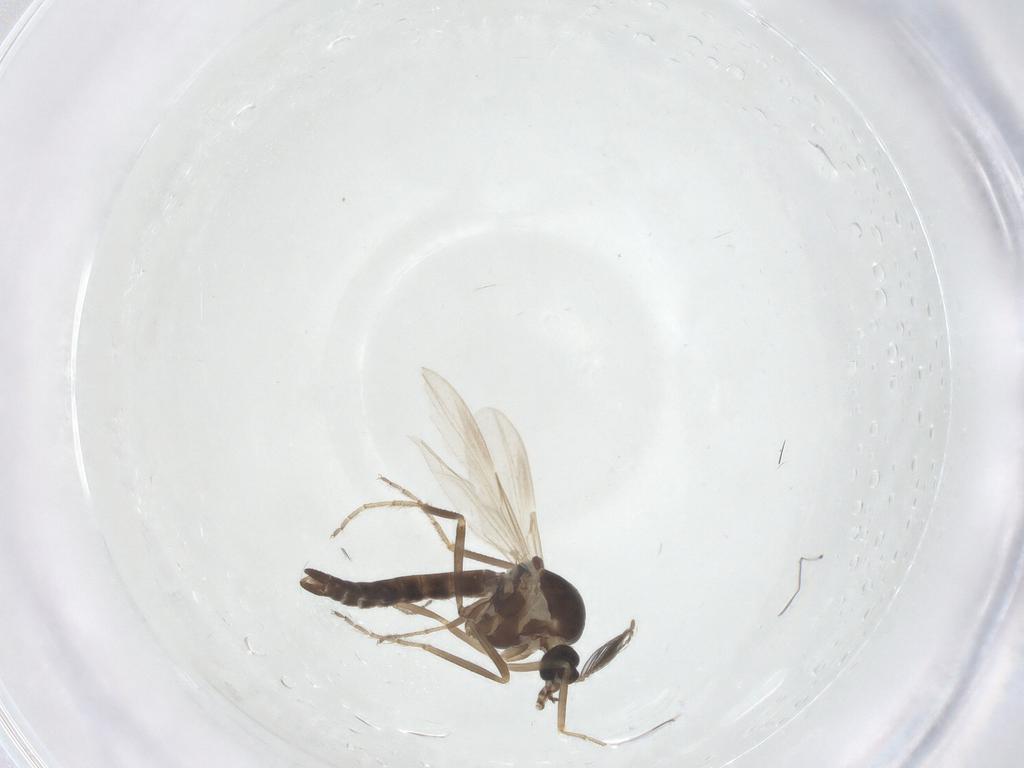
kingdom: Animalia
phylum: Arthropoda
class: Insecta
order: Diptera
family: Ceratopogonidae
